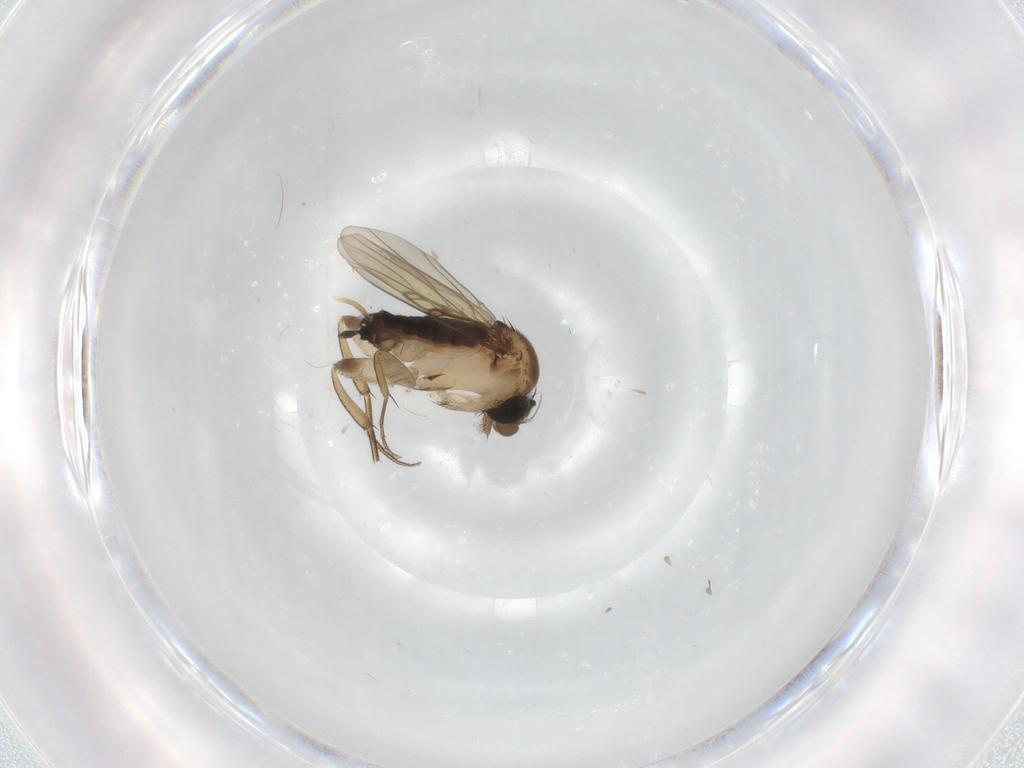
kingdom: Animalia
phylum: Arthropoda
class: Insecta
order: Diptera
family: Phoridae
